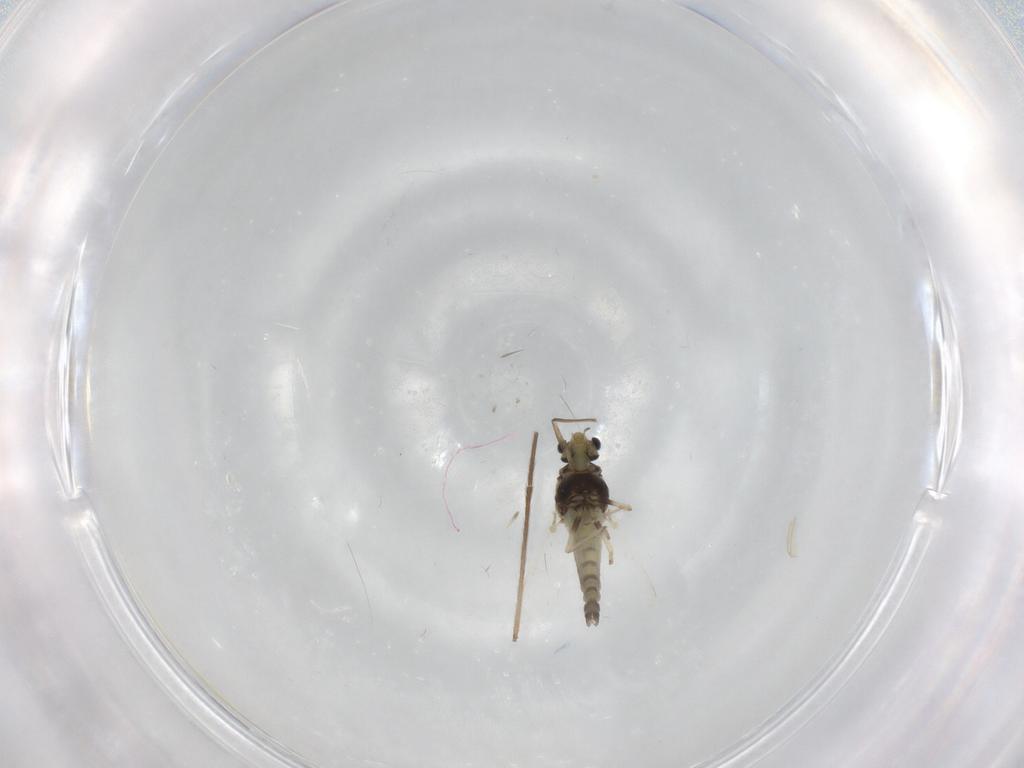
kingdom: Animalia
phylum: Arthropoda
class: Insecta
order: Diptera
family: Chironomidae
